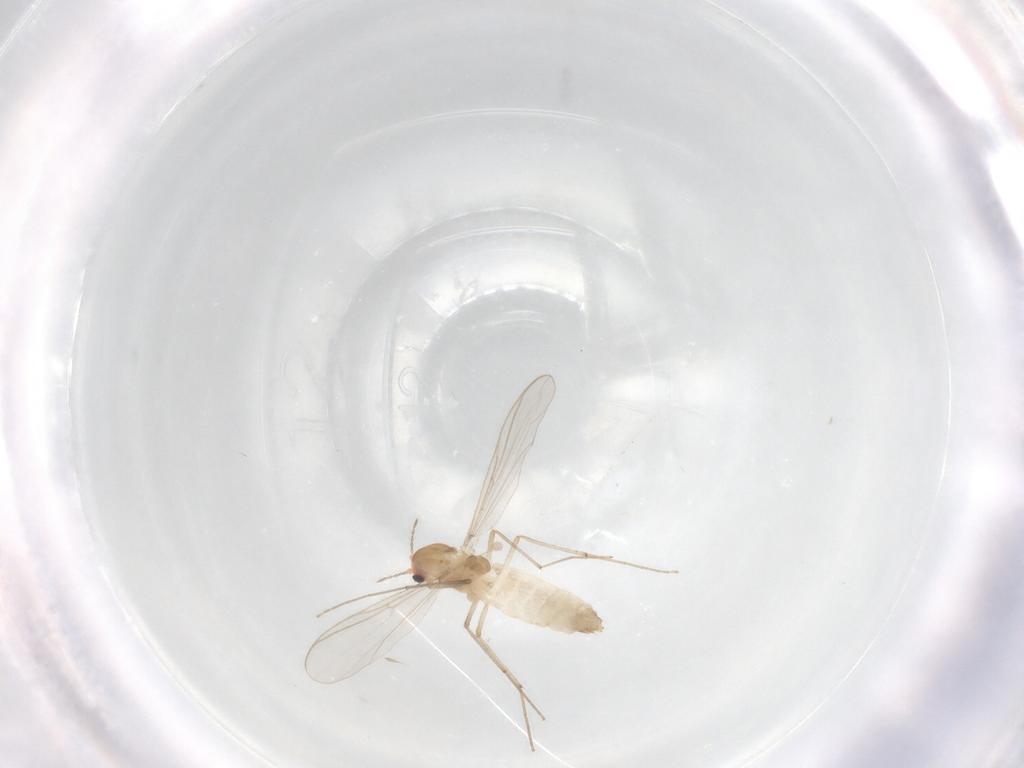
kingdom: Animalia
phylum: Arthropoda
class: Insecta
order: Diptera
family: Chironomidae
